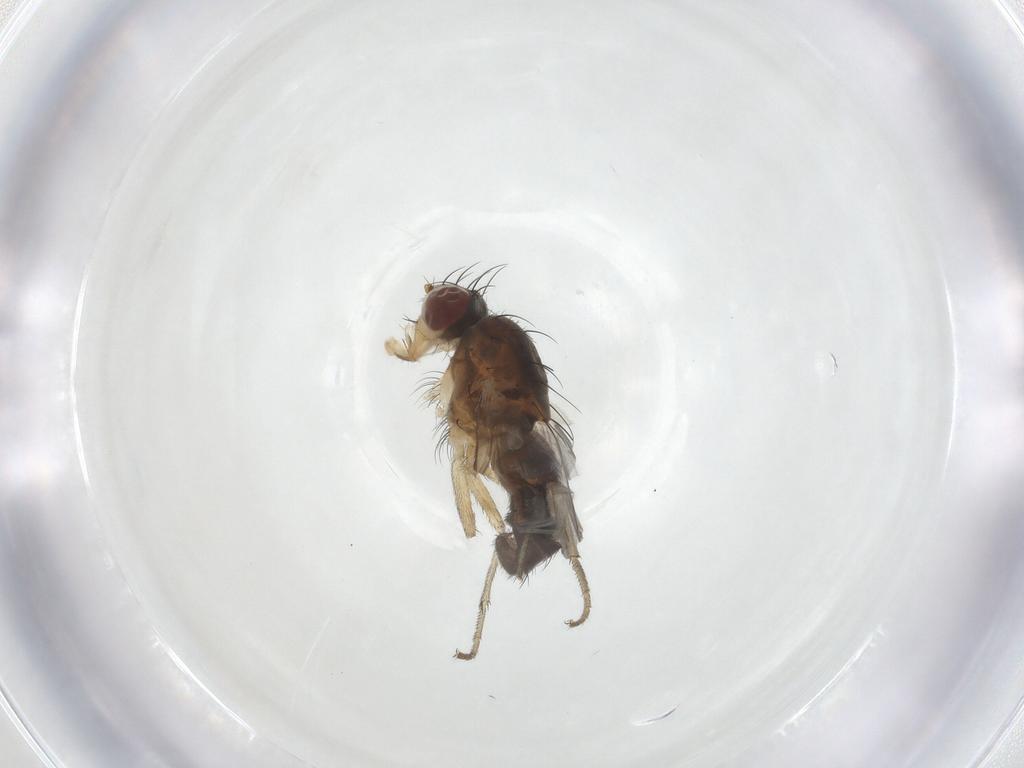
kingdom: Animalia
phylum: Arthropoda
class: Insecta
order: Diptera
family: Heleomyzidae
